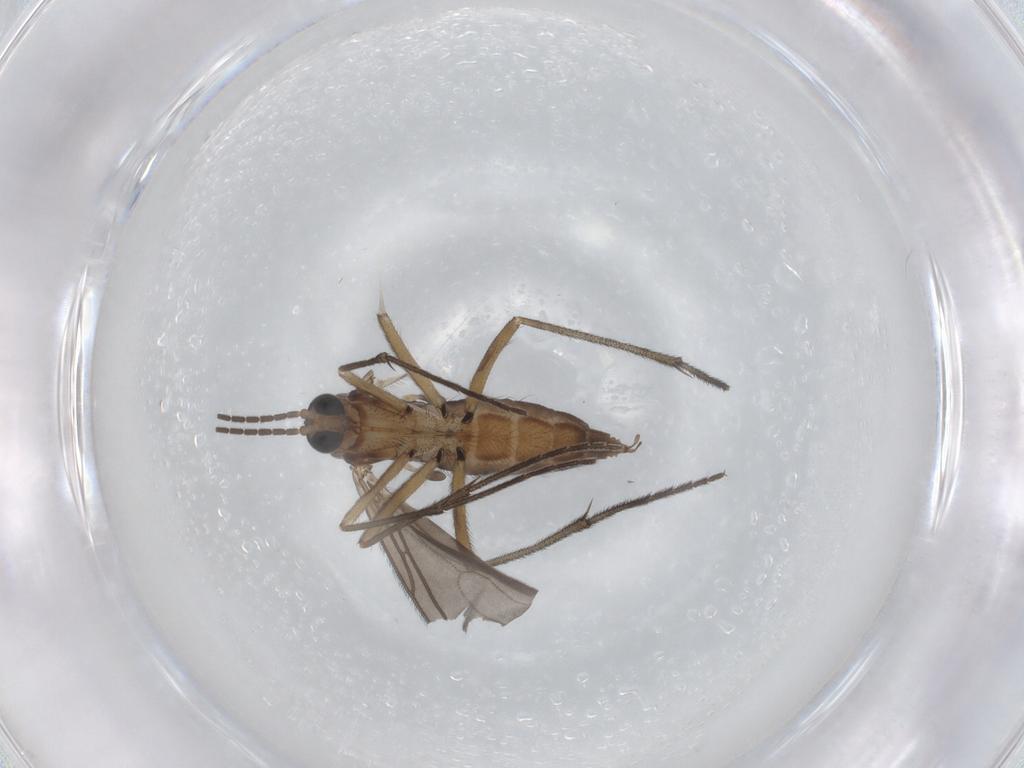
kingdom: Animalia
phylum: Arthropoda
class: Insecta
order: Diptera
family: Sciaridae
